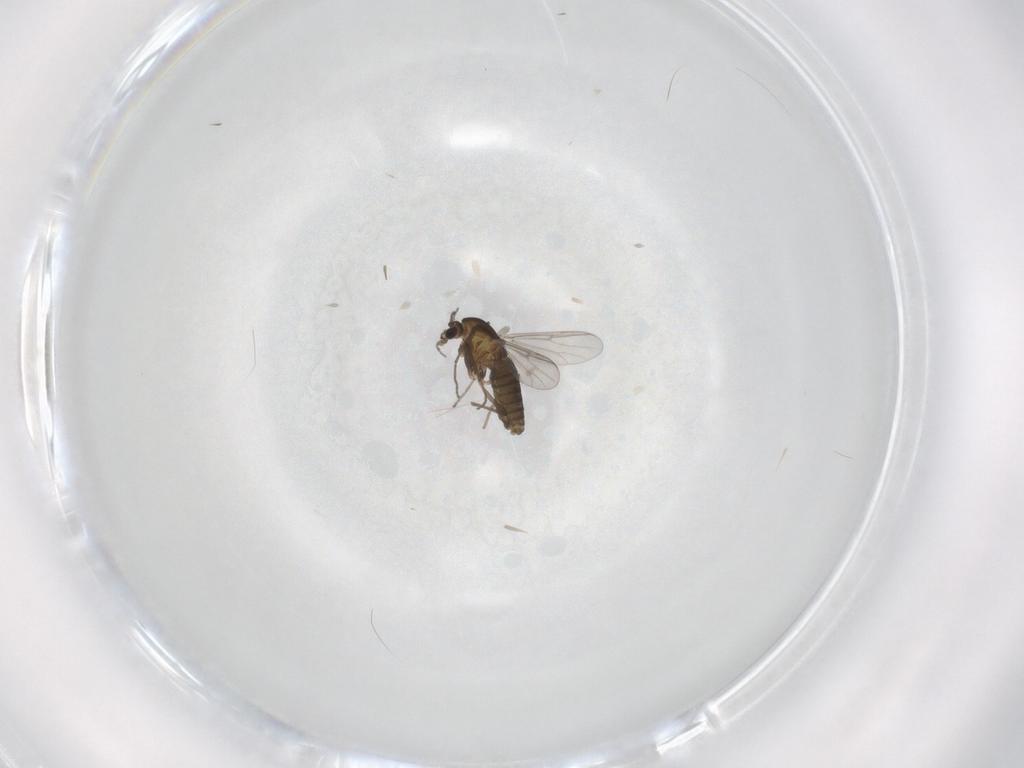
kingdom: Animalia
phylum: Arthropoda
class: Insecta
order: Diptera
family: Chironomidae
